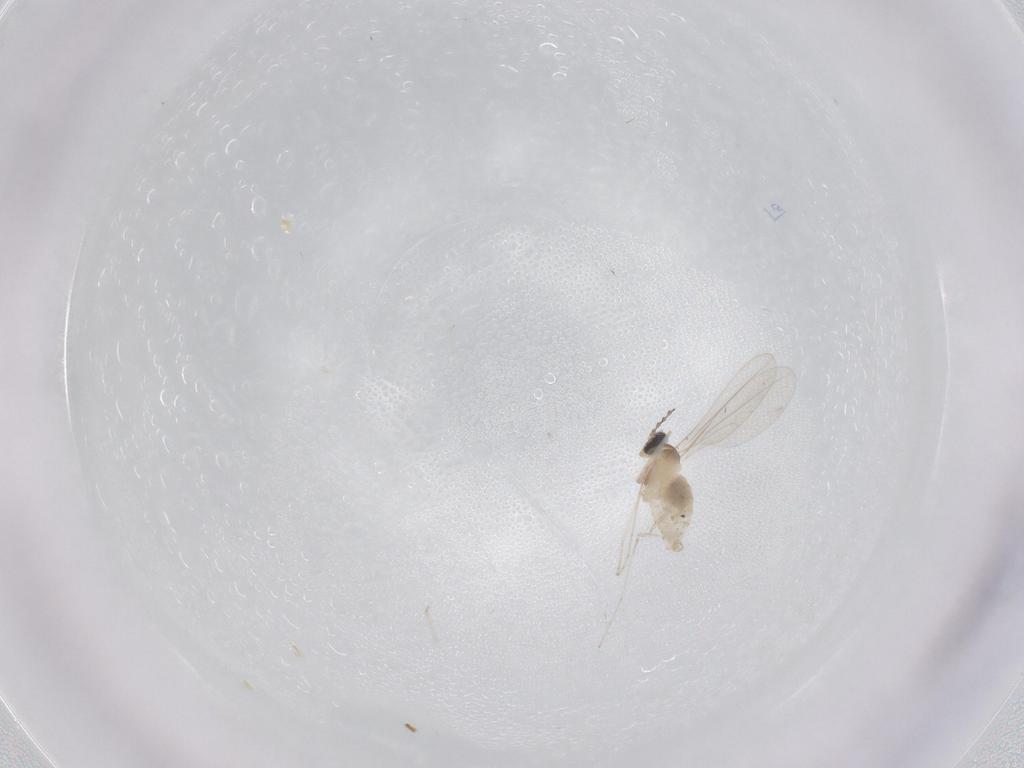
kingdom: Animalia
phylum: Arthropoda
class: Insecta
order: Diptera
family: Cecidomyiidae
